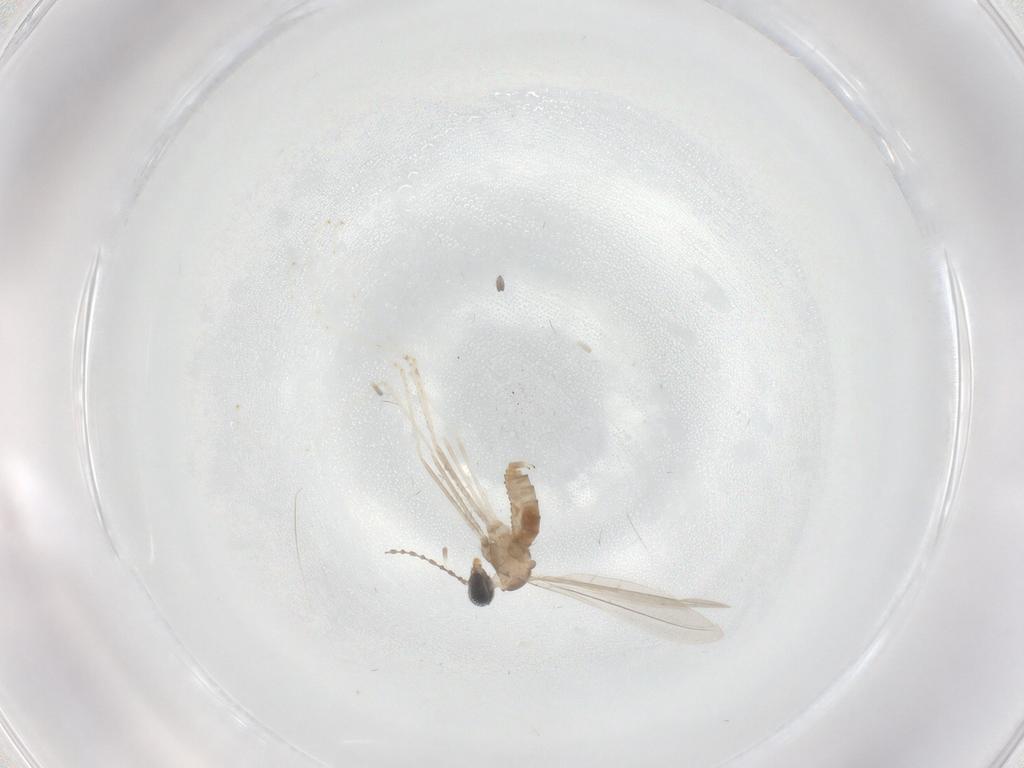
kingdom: Animalia
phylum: Arthropoda
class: Insecta
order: Diptera
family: Cecidomyiidae
